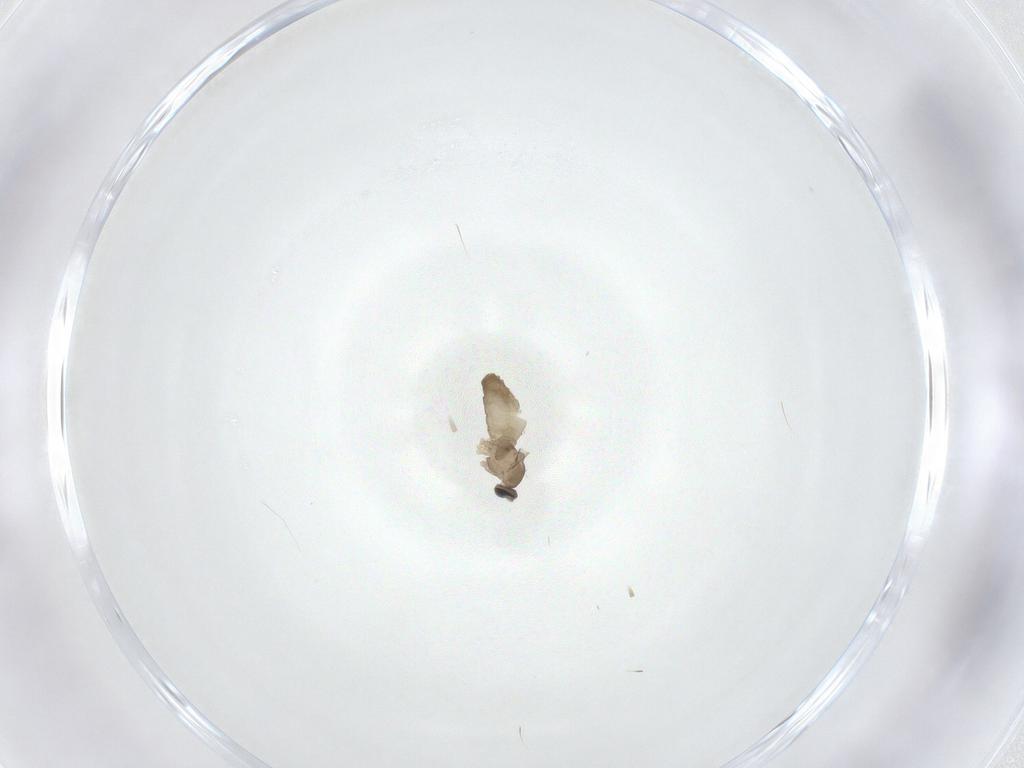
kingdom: Animalia
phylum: Arthropoda
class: Insecta
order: Diptera
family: Ceratopogonidae
